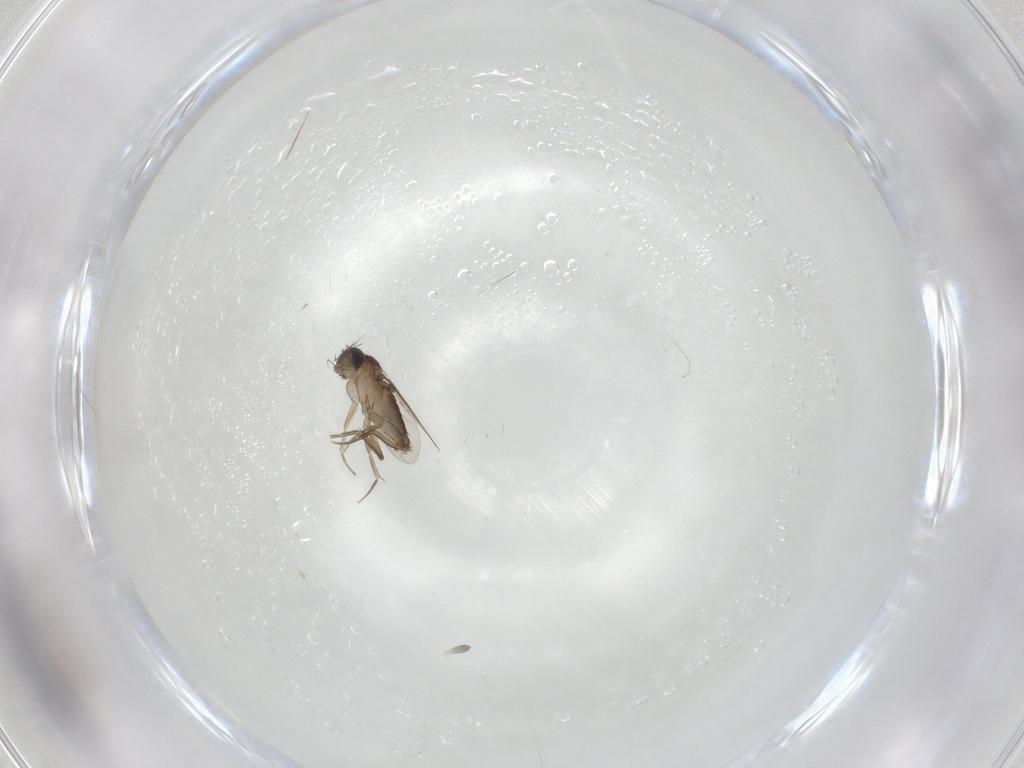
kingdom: Animalia
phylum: Arthropoda
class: Insecta
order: Diptera
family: Phoridae
